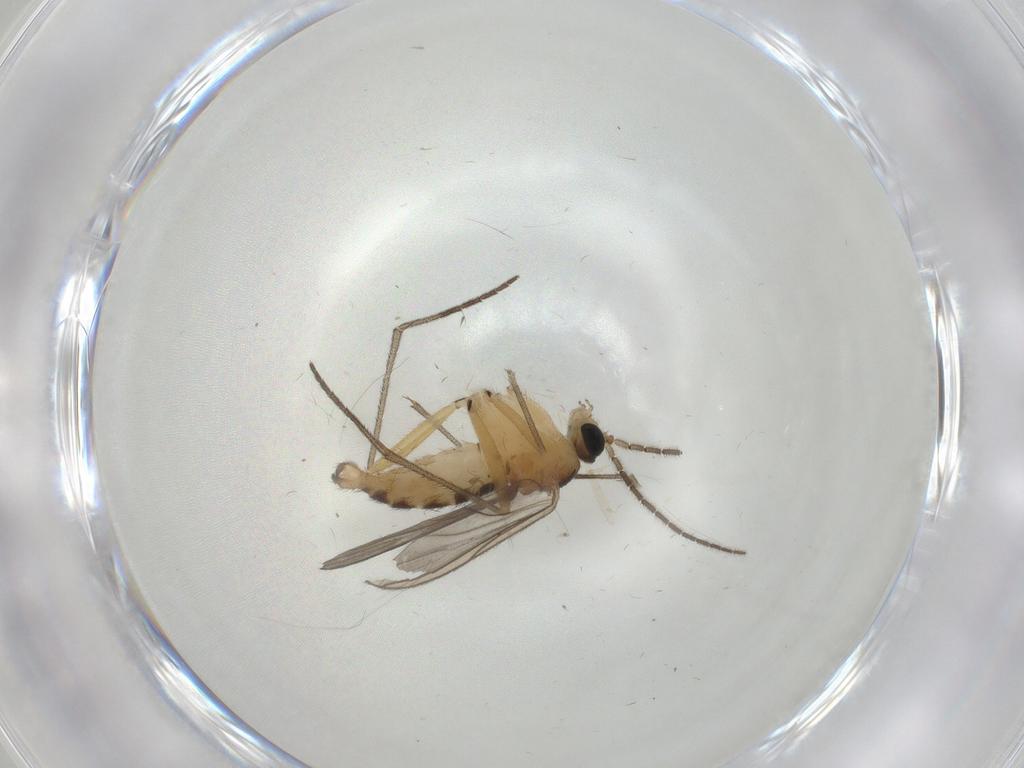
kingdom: Animalia
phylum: Arthropoda
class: Insecta
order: Diptera
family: Sciaridae
